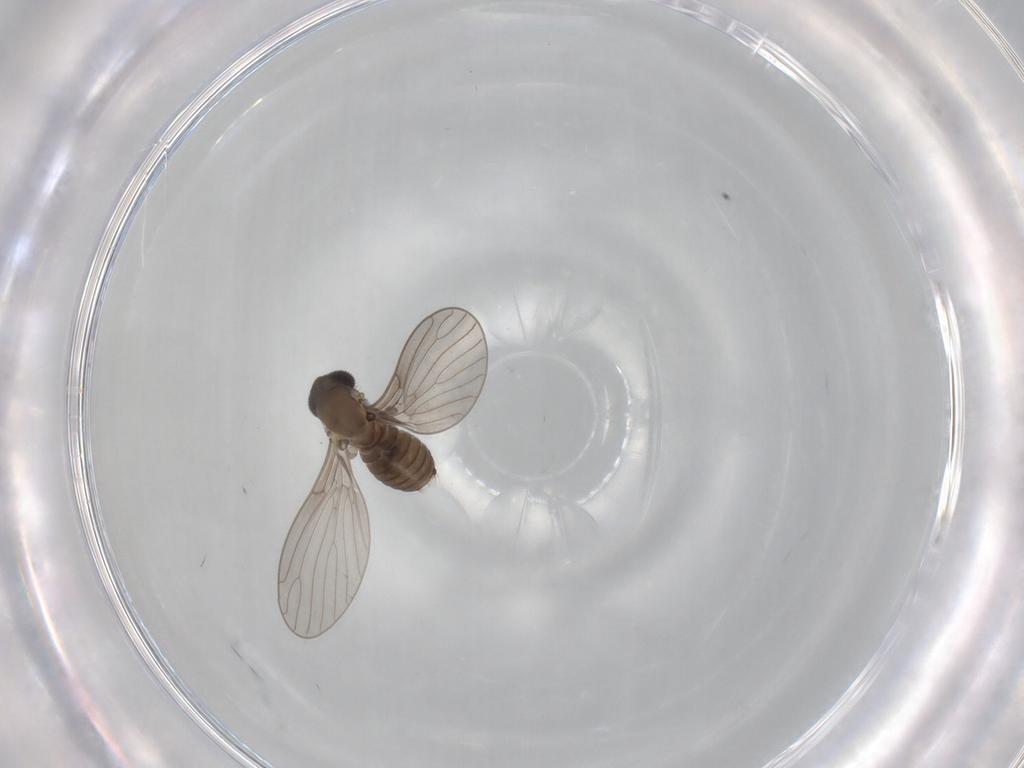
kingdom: Animalia
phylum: Arthropoda
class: Insecta
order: Diptera
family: Psychodidae
